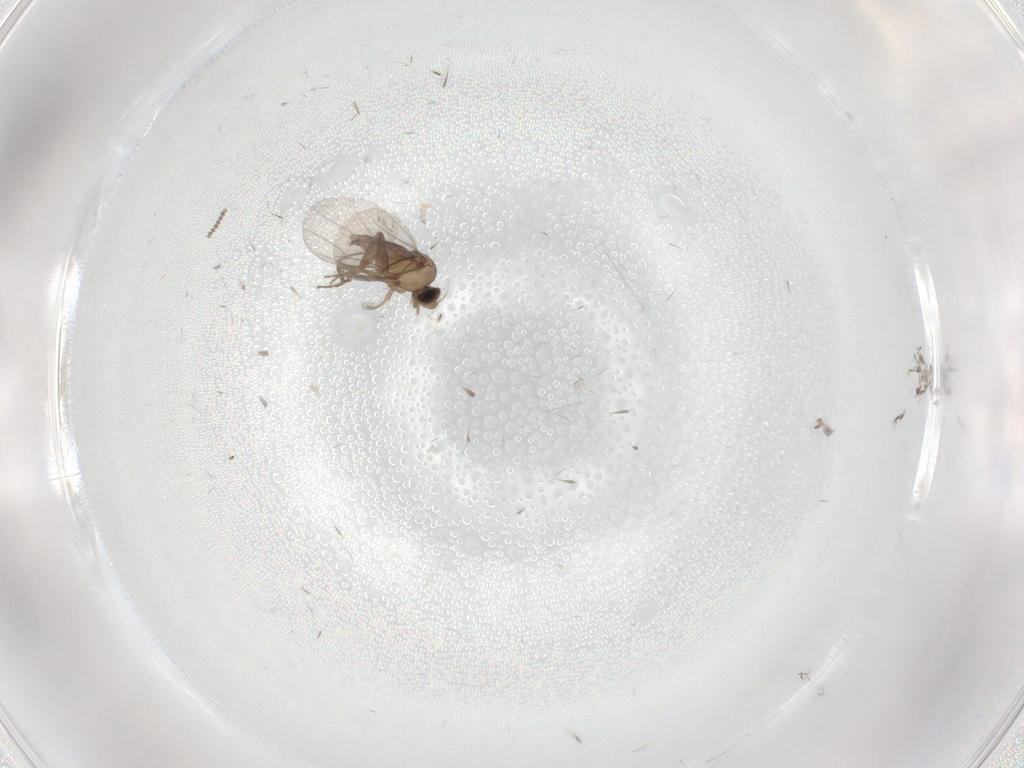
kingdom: Animalia
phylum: Arthropoda
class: Insecta
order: Diptera
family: Cecidomyiidae
